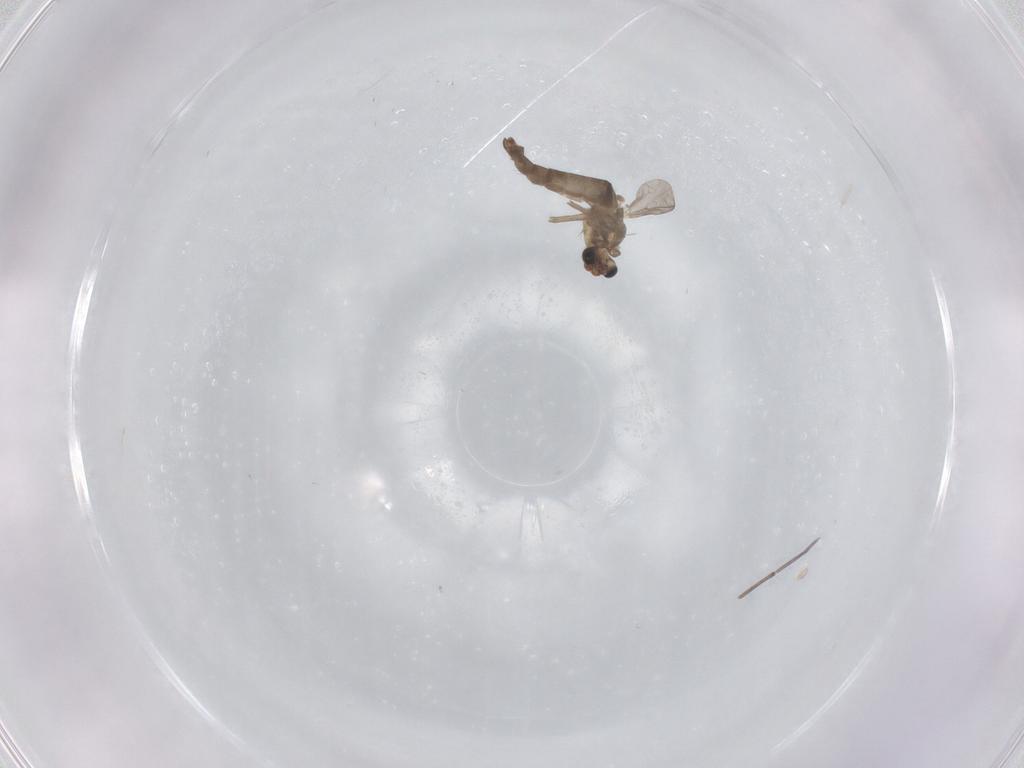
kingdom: Animalia
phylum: Arthropoda
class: Insecta
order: Diptera
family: Chironomidae
